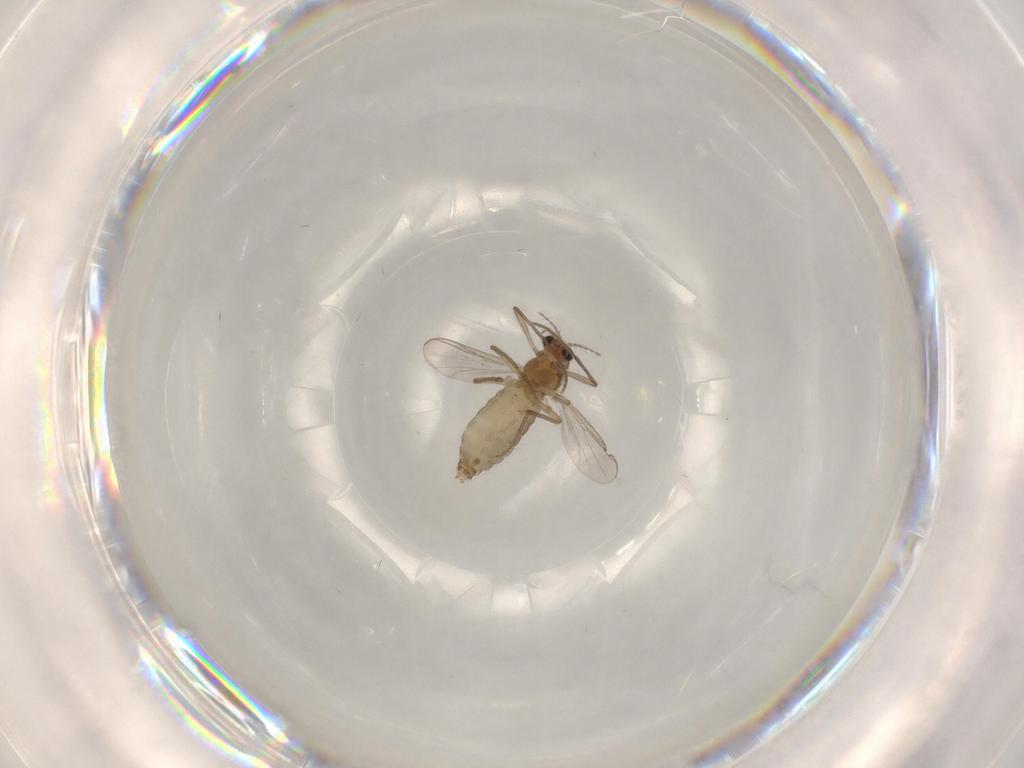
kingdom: Animalia
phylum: Arthropoda
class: Insecta
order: Diptera
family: Chironomidae
